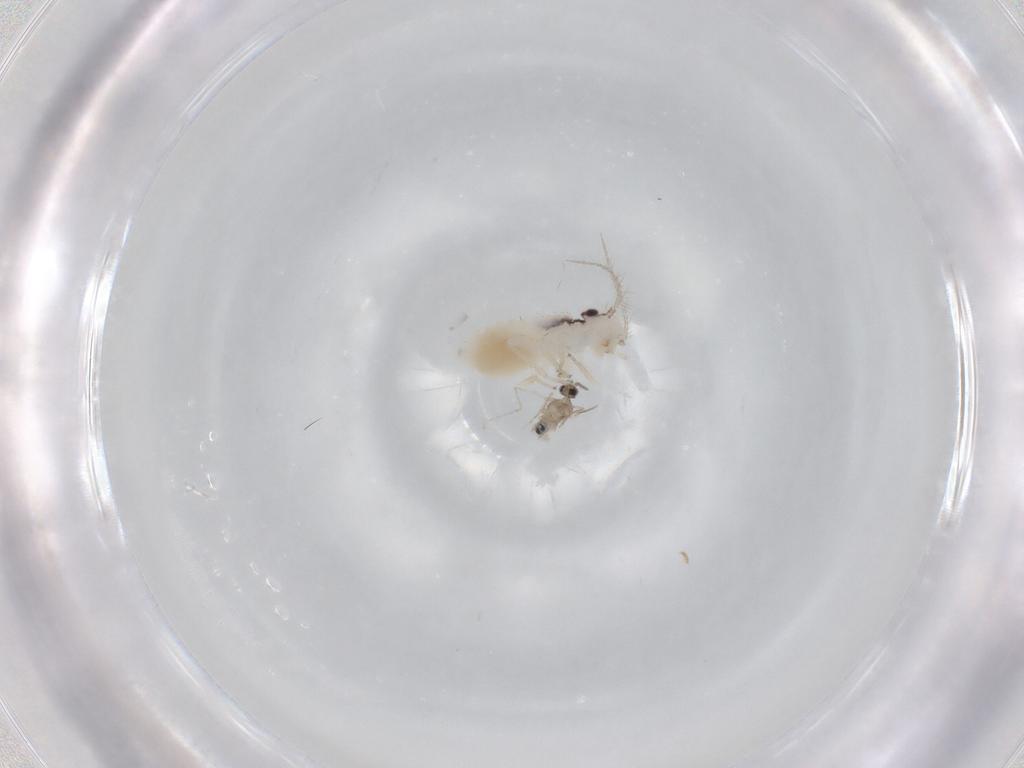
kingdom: Animalia
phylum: Arthropoda
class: Insecta
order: Diptera
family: Cecidomyiidae
